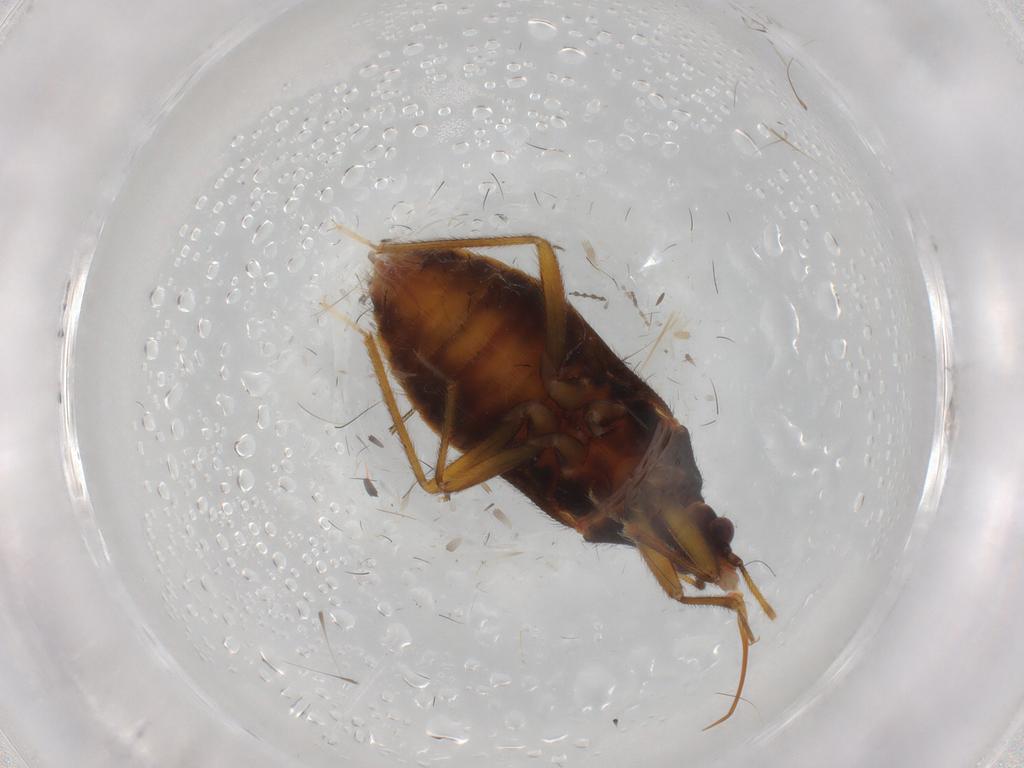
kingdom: Animalia
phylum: Arthropoda
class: Insecta
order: Hemiptera
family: Anthocoridae
